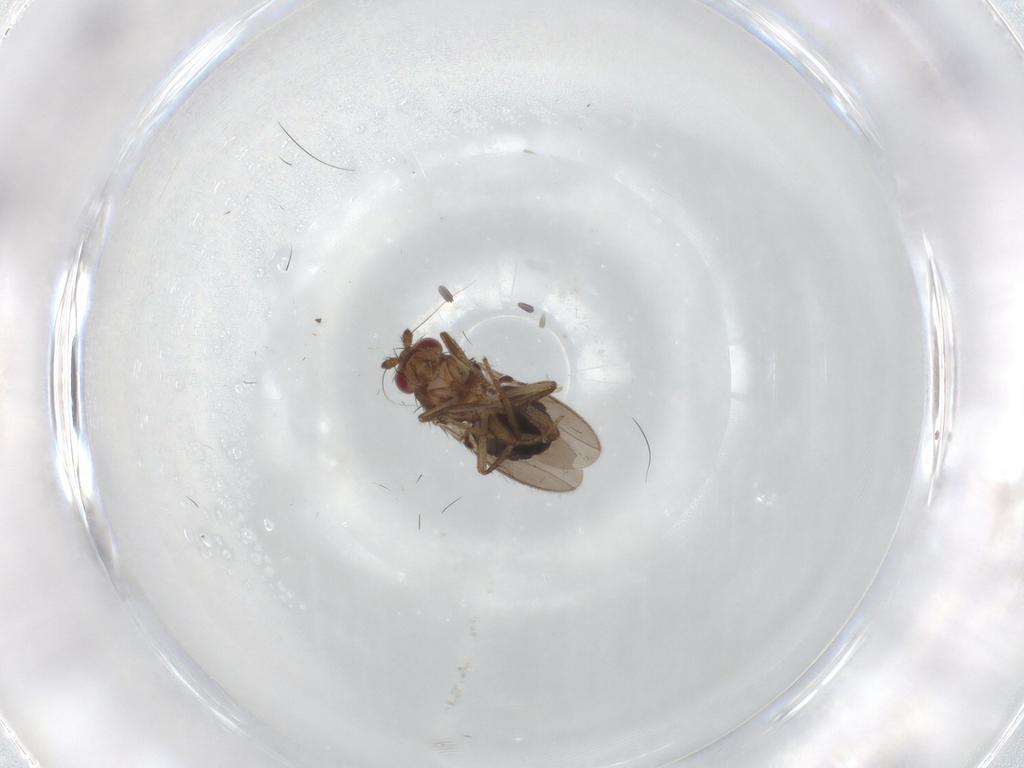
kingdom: Animalia
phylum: Arthropoda
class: Insecta
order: Diptera
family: Sphaeroceridae
